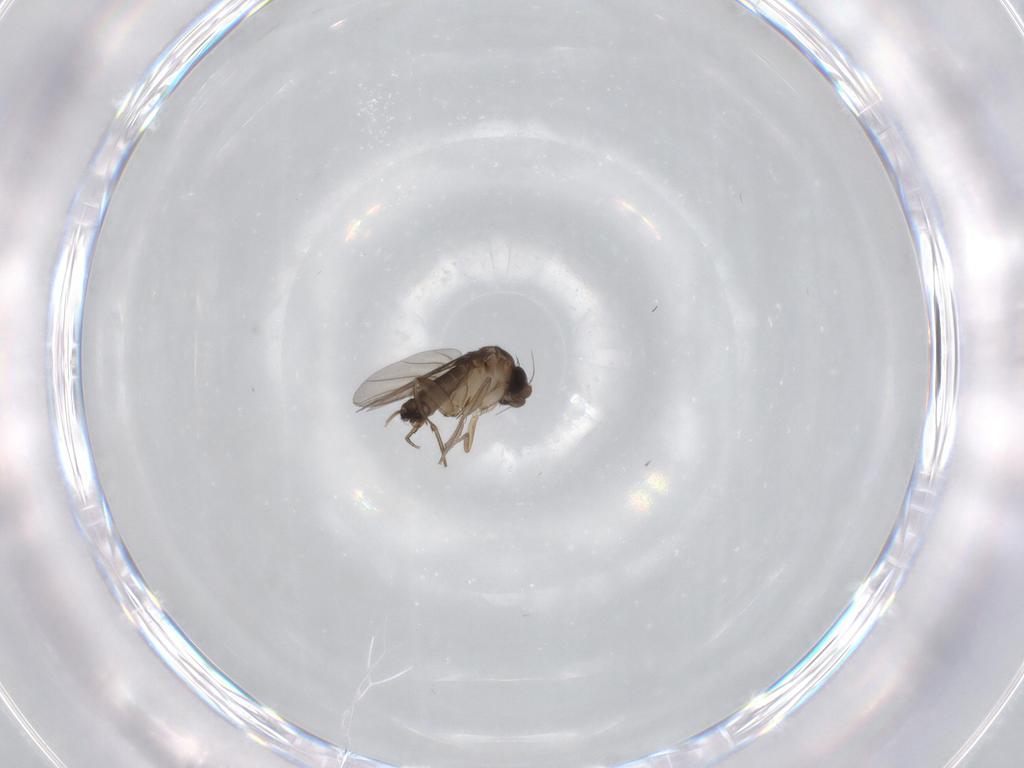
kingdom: Animalia
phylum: Arthropoda
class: Insecta
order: Diptera
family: Phoridae
